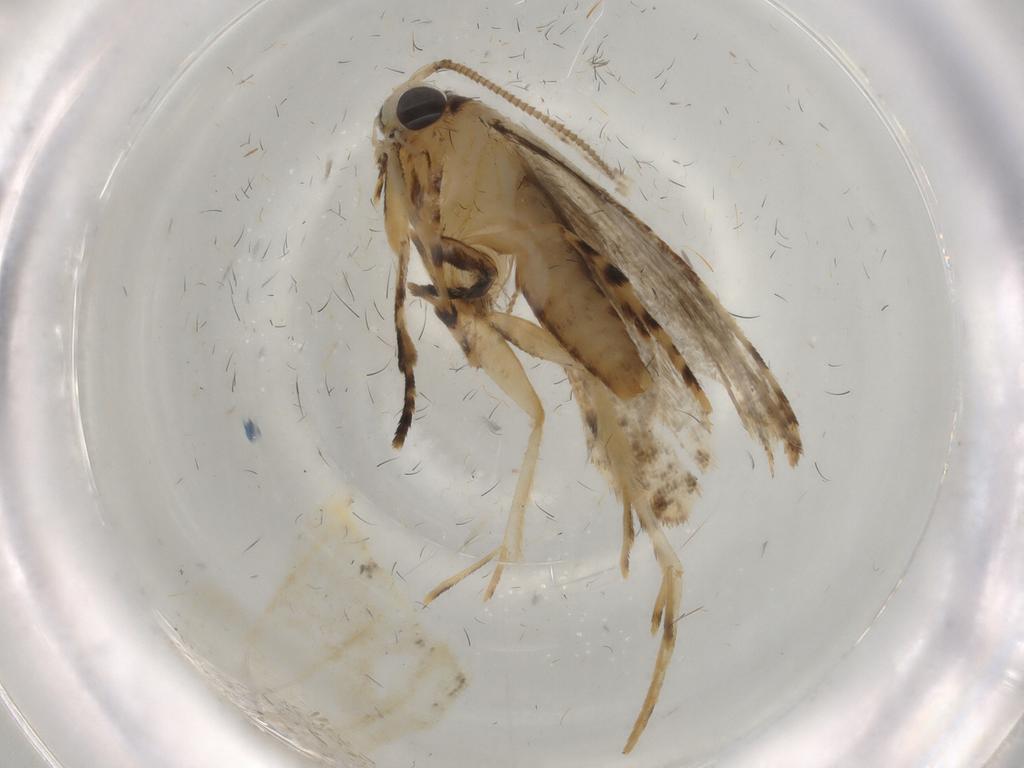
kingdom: Animalia
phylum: Arthropoda
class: Insecta
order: Lepidoptera
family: Tineidae
